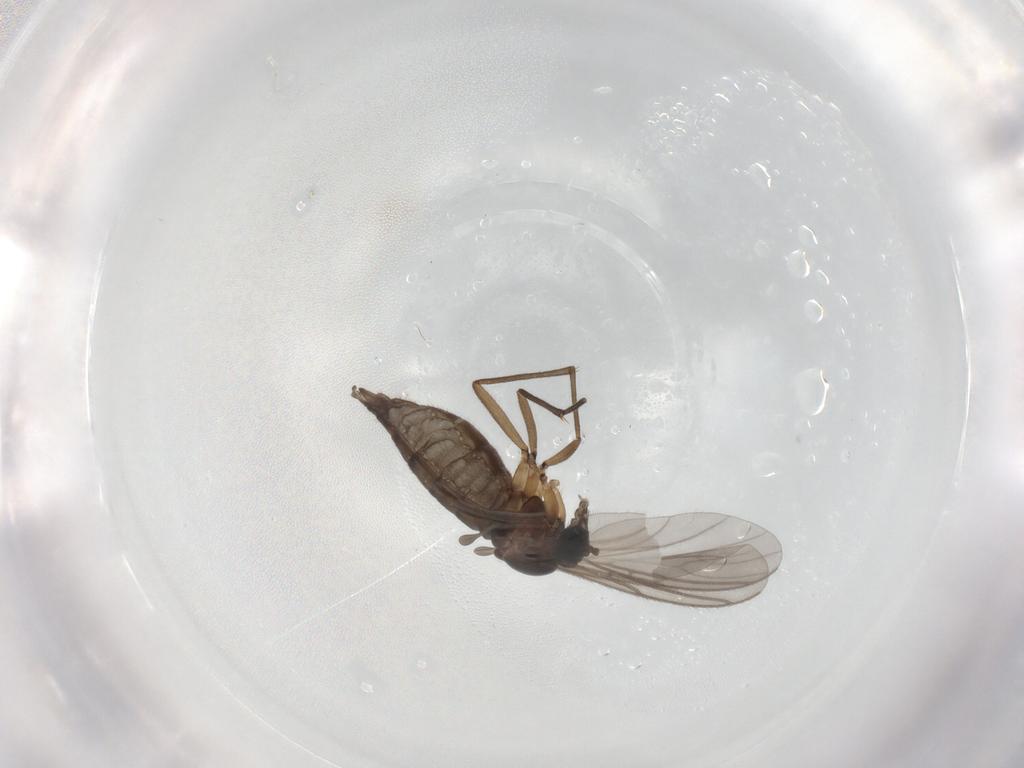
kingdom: Animalia
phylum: Arthropoda
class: Insecta
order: Diptera
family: Sciaridae
